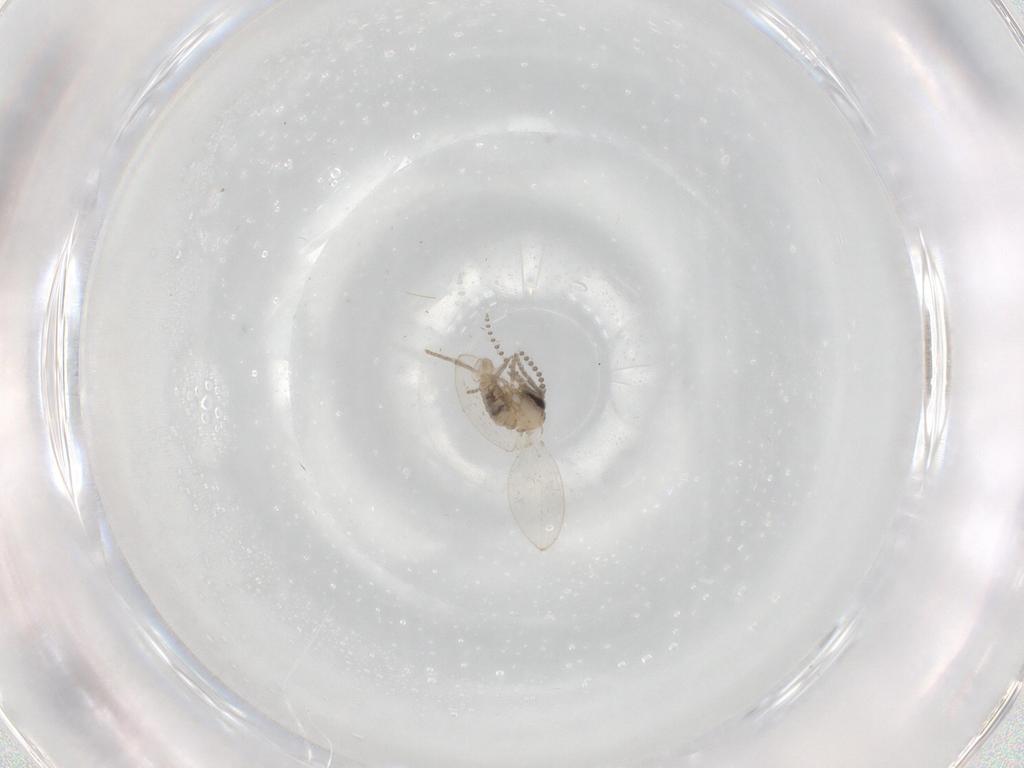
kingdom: Animalia
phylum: Arthropoda
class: Insecta
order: Diptera
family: Psychodidae
